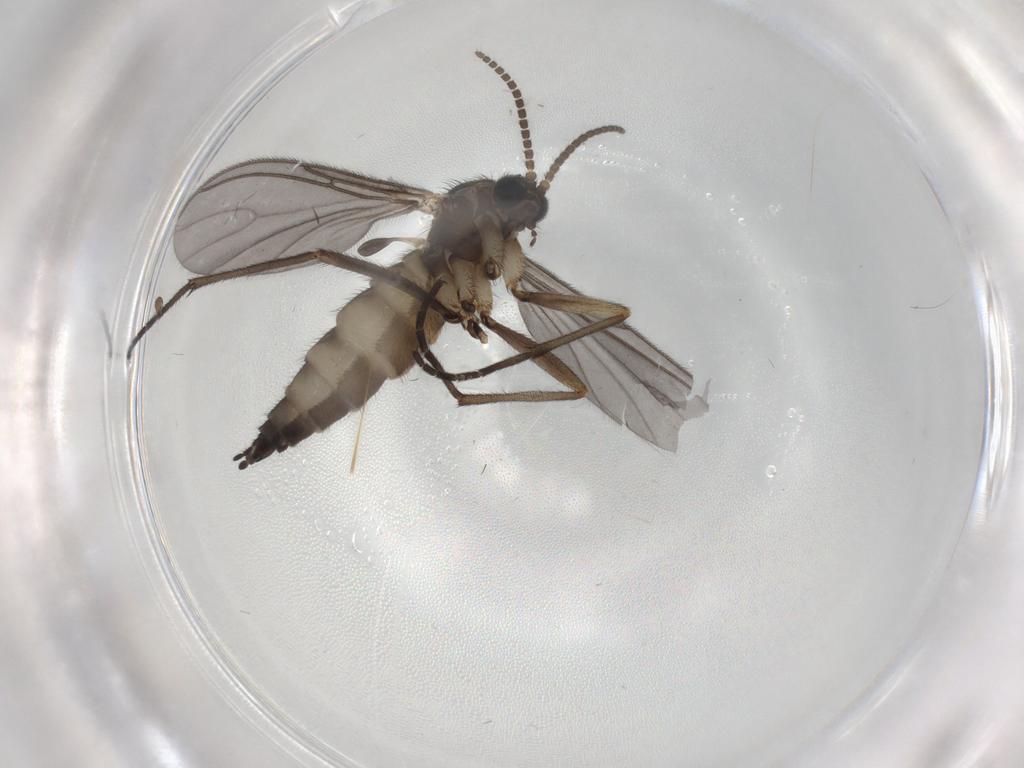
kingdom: Animalia
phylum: Arthropoda
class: Insecta
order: Diptera
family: Sciaridae
